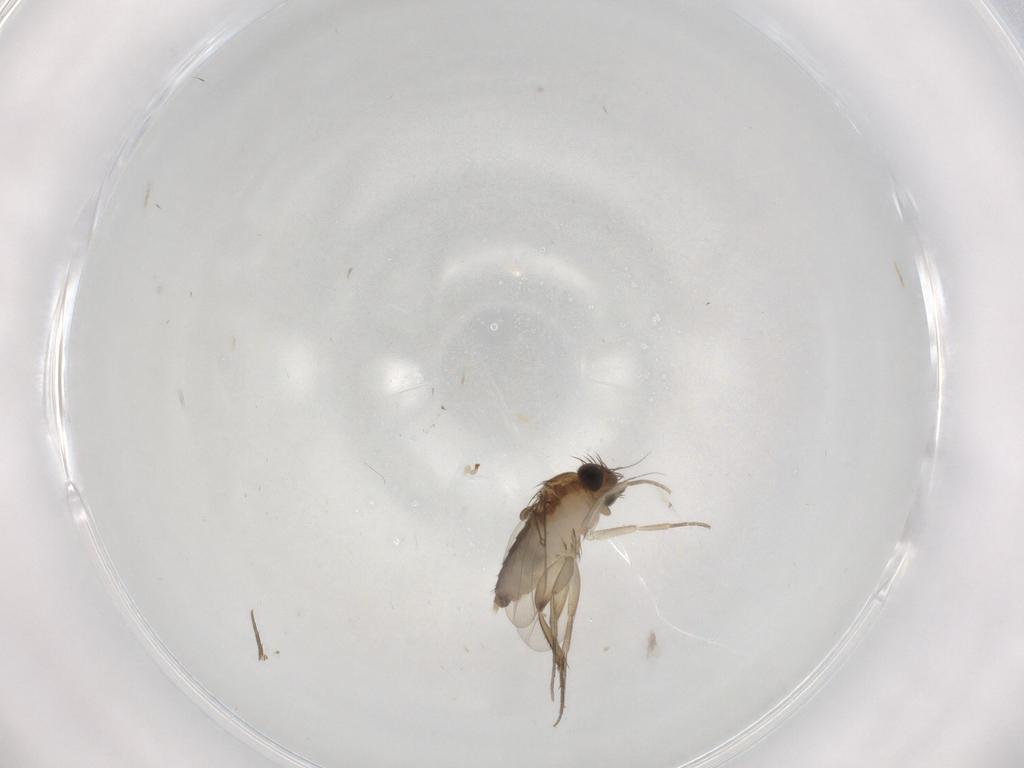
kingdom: Animalia
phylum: Arthropoda
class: Insecta
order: Diptera
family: Phoridae
